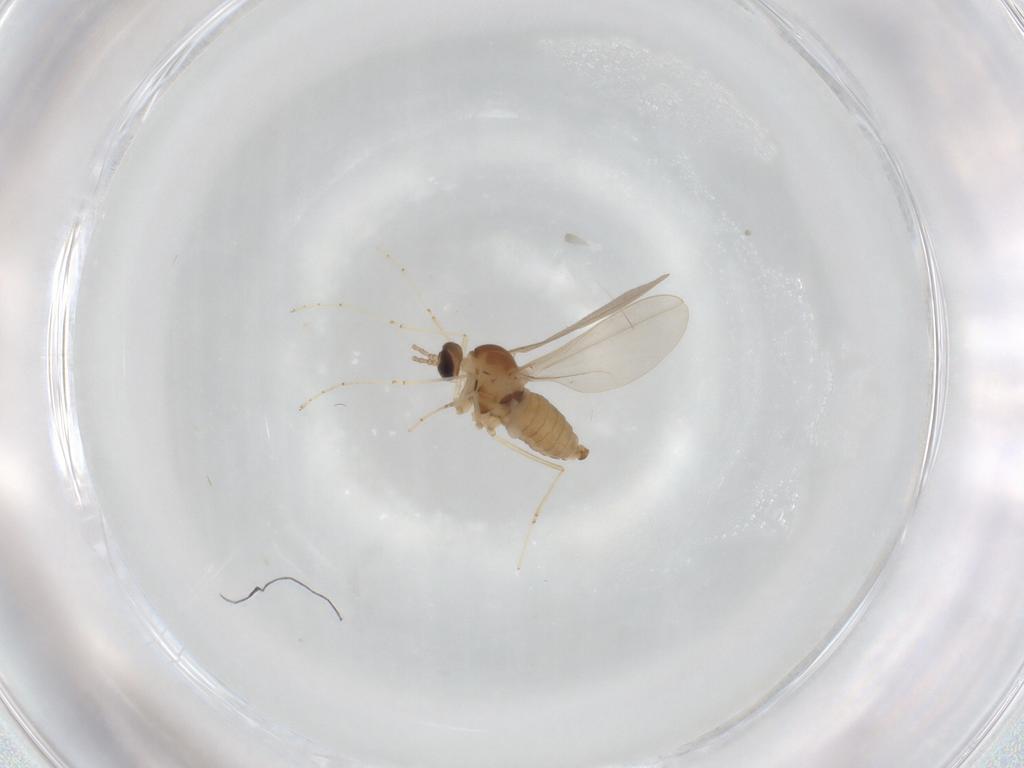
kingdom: Animalia
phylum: Arthropoda
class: Insecta
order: Diptera
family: Cecidomyiidae
